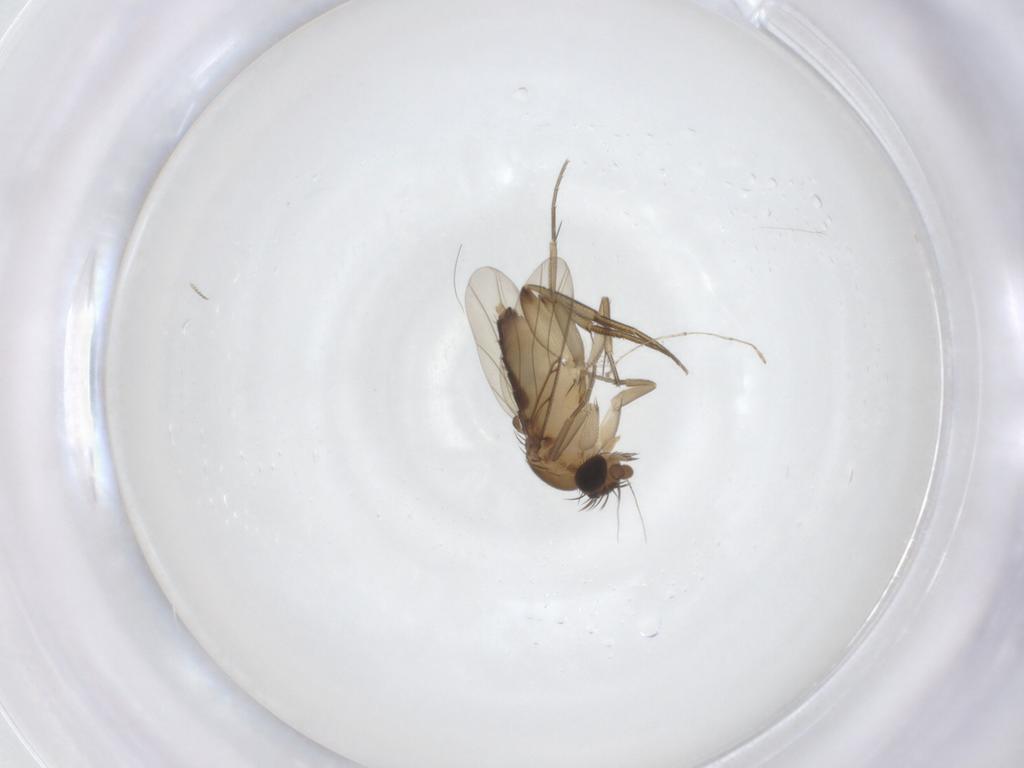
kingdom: Animalia
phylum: Arthropoda
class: Insecta
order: Diptera
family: Phoridae
